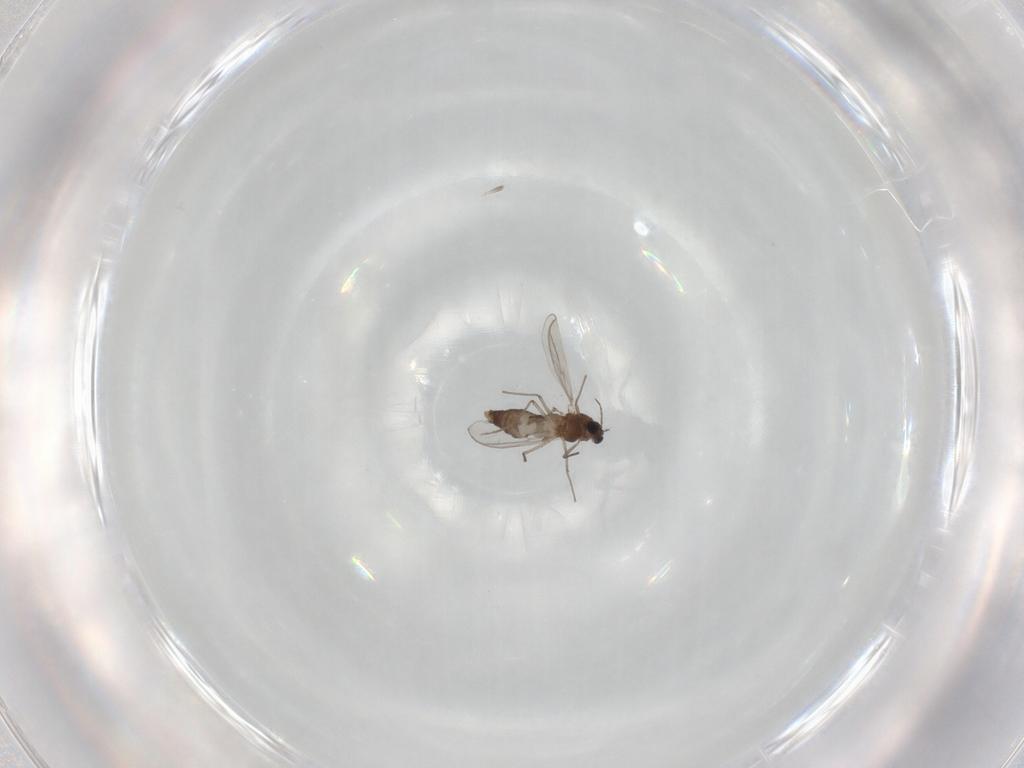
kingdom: Animalia
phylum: Arthropoda
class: Insecta
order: Diptera
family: Chironomidae
